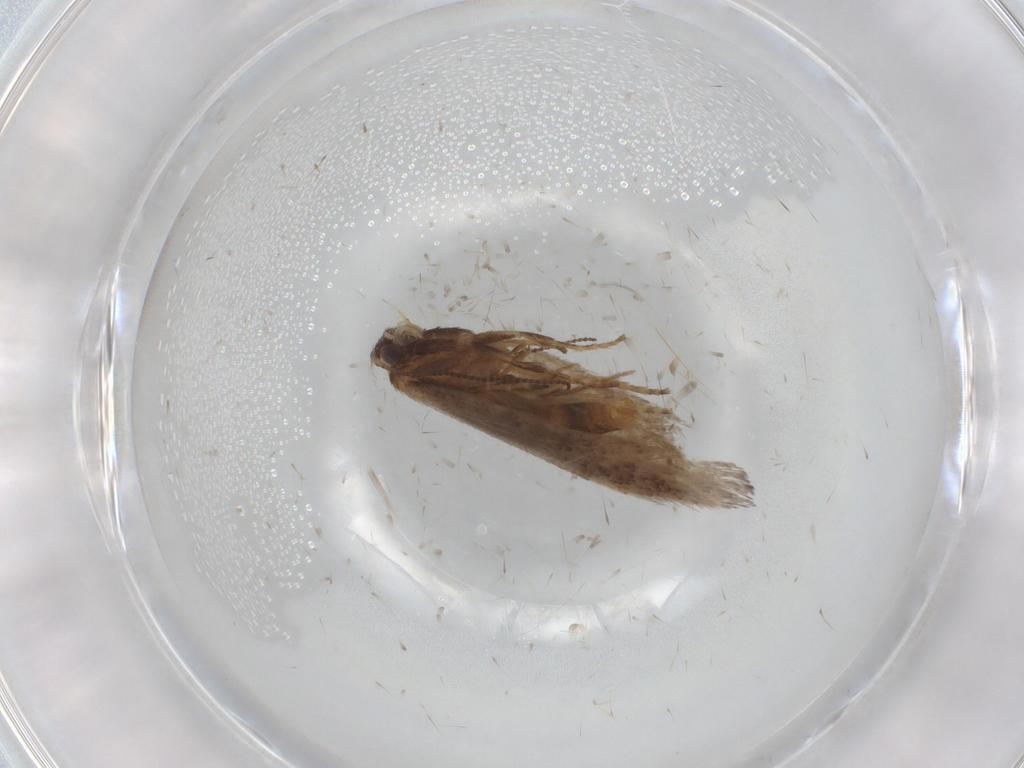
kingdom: Animalia
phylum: Arthropoda
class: Insecta
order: Lepidoptera
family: Nepticulidae
